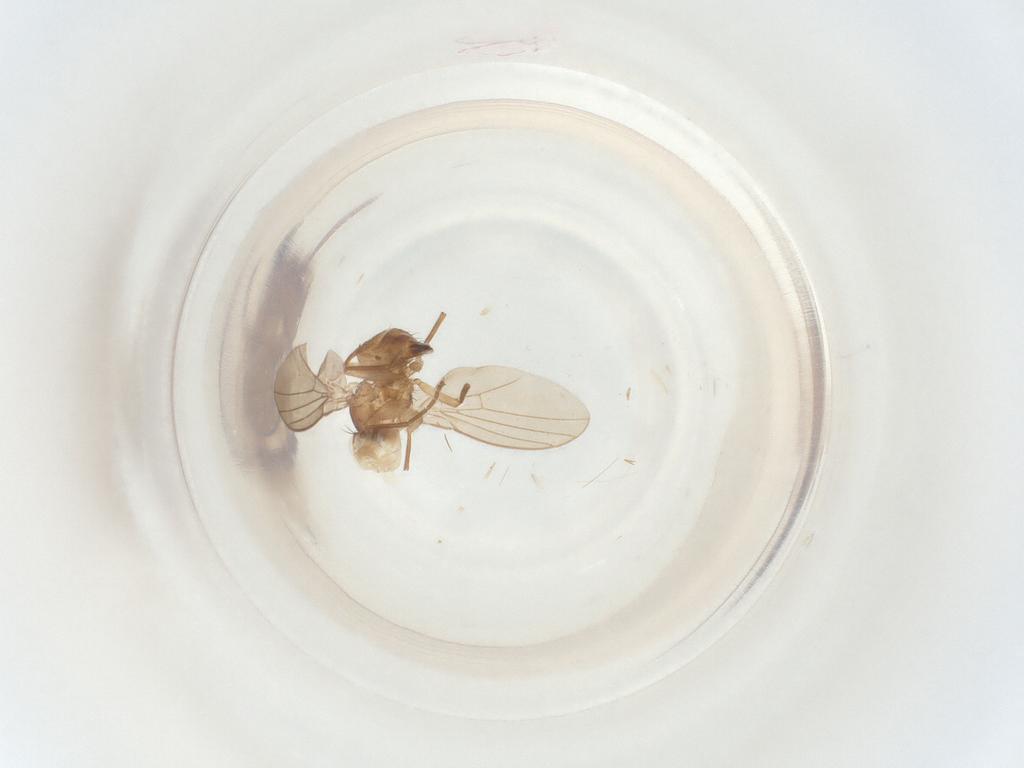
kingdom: Animalia
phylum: Arthropoda
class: Insecta
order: Diptera
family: Agromyzidae
